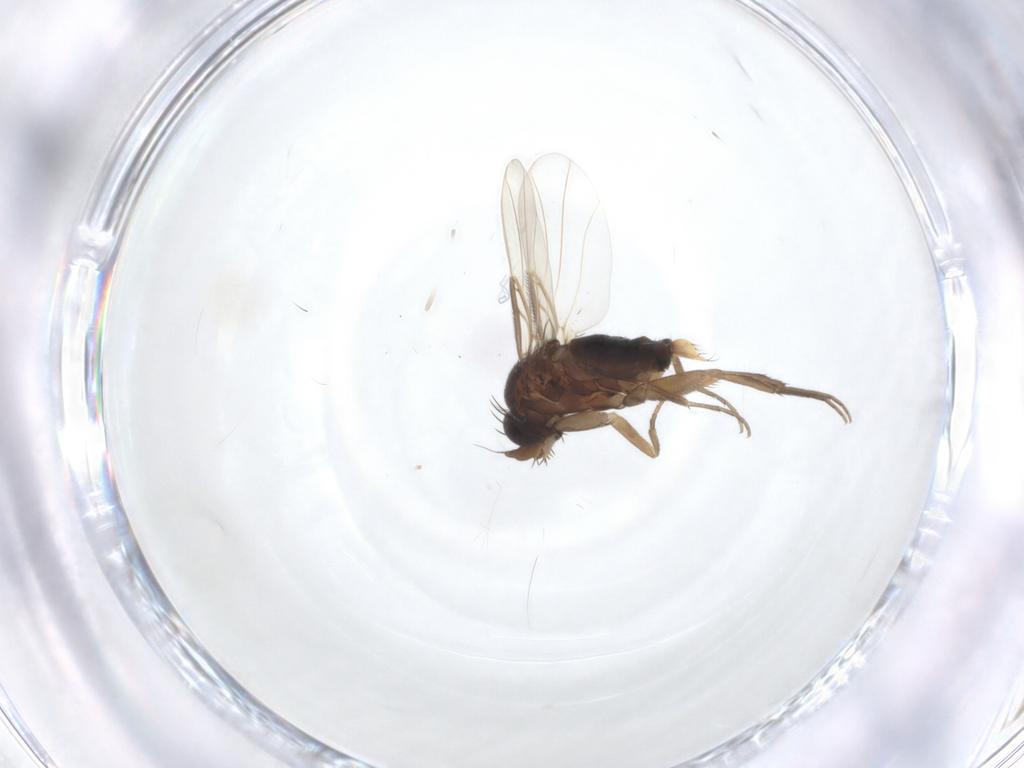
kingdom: Animalia
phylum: Arthropoda
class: Insecta
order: Diptera
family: Phoridae
